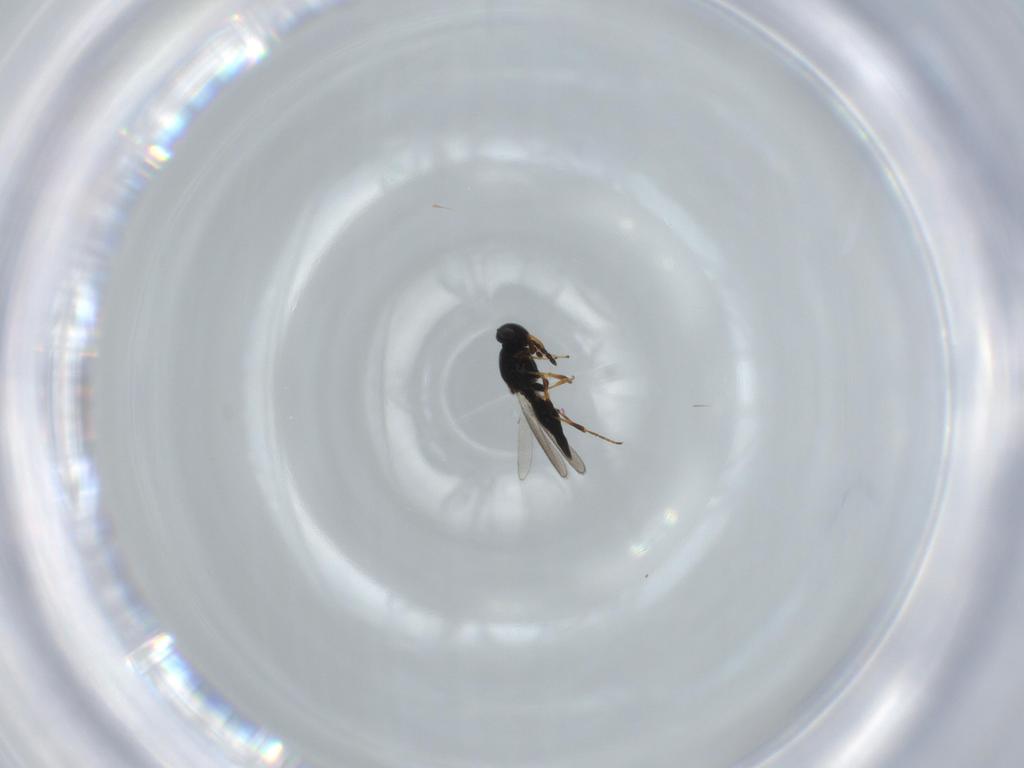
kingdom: Animalia
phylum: Arthropoda
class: Insecta
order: Hymenoptera
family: Platygastridae
